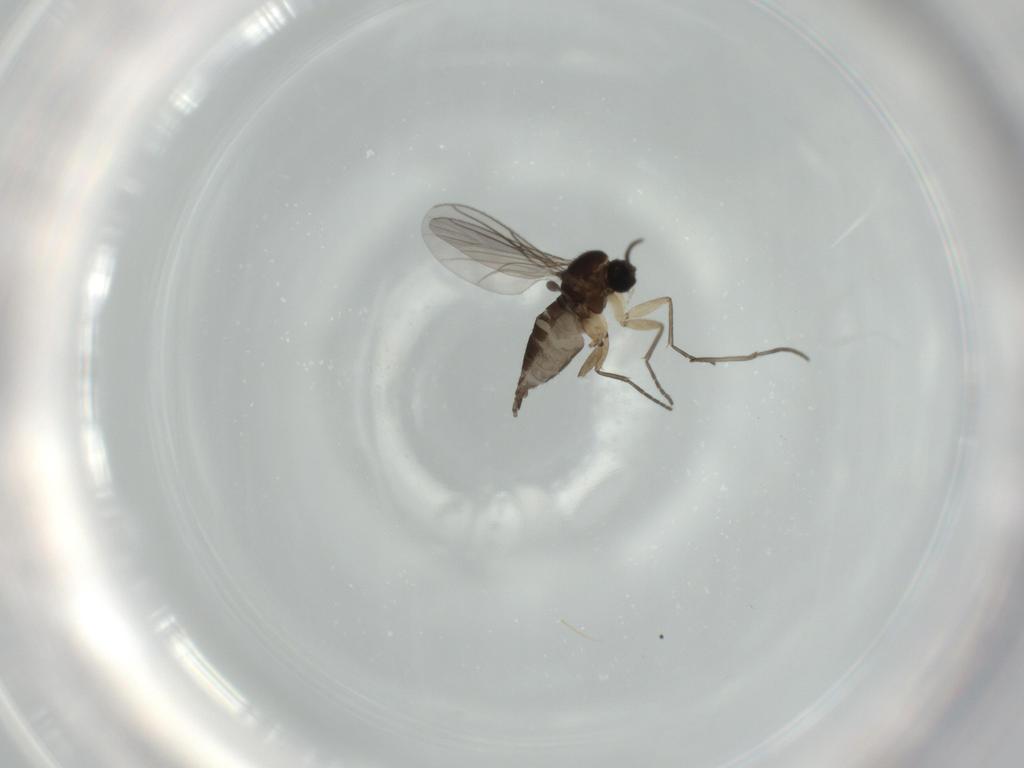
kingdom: Animalia
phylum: Arthropoda
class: Insecta
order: Diptera
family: Sciaridae
